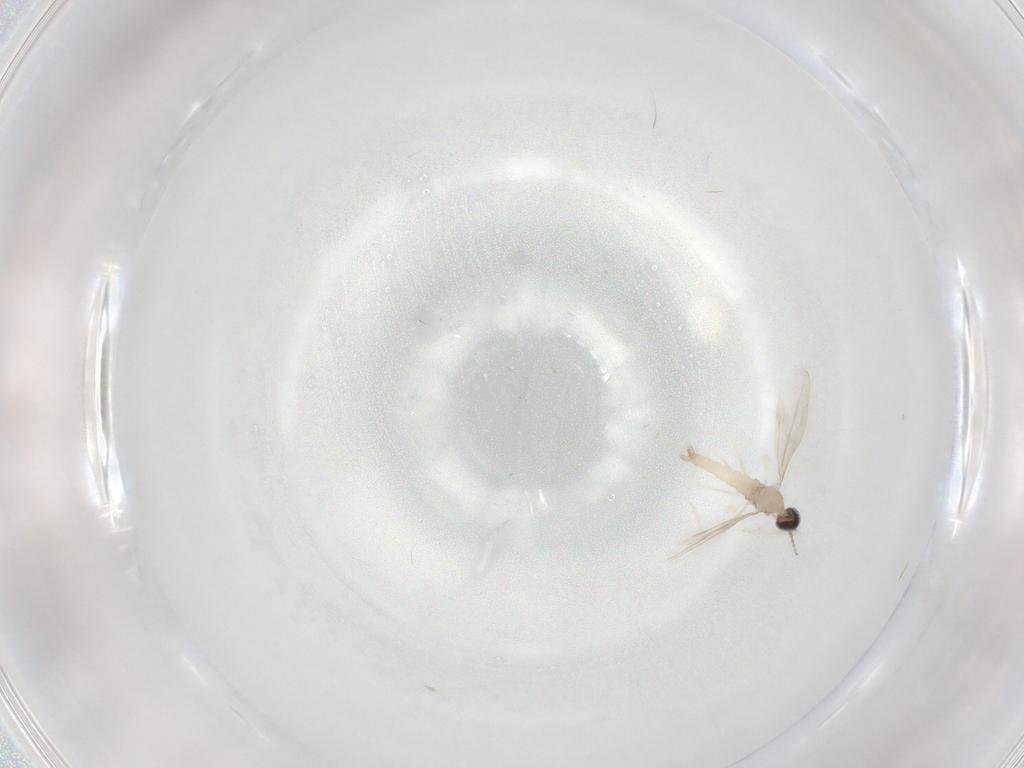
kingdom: Animalia
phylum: Arthropoda
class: Insecta
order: Diptera
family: Cecidomyiidae
